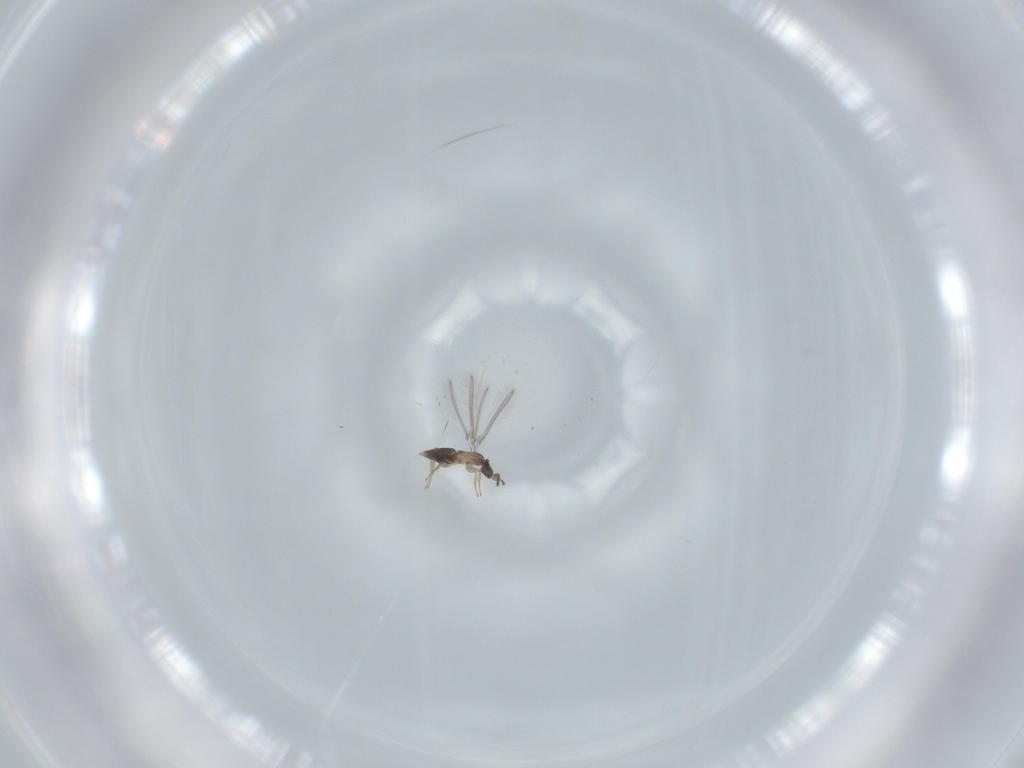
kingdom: Animalia
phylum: Arthropoda
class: Insecta
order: Hymenoptera
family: Mymaridae
